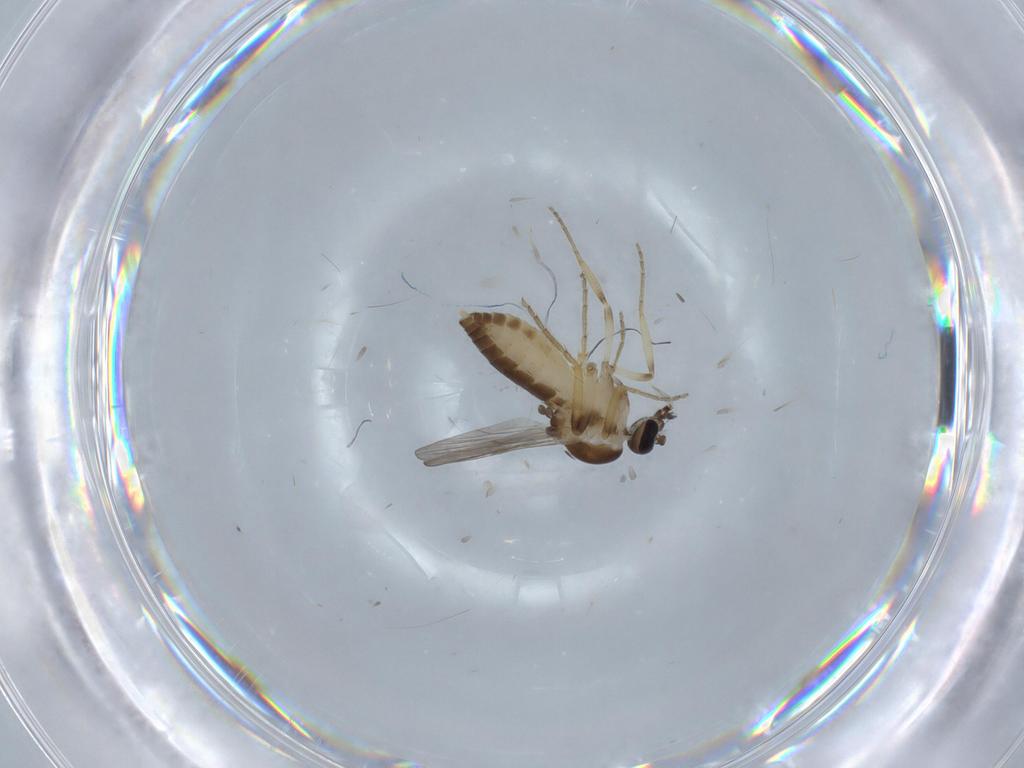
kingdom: Animalia
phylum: Arthropoda
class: Insecta
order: Diptera
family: Ceratopogonidae
